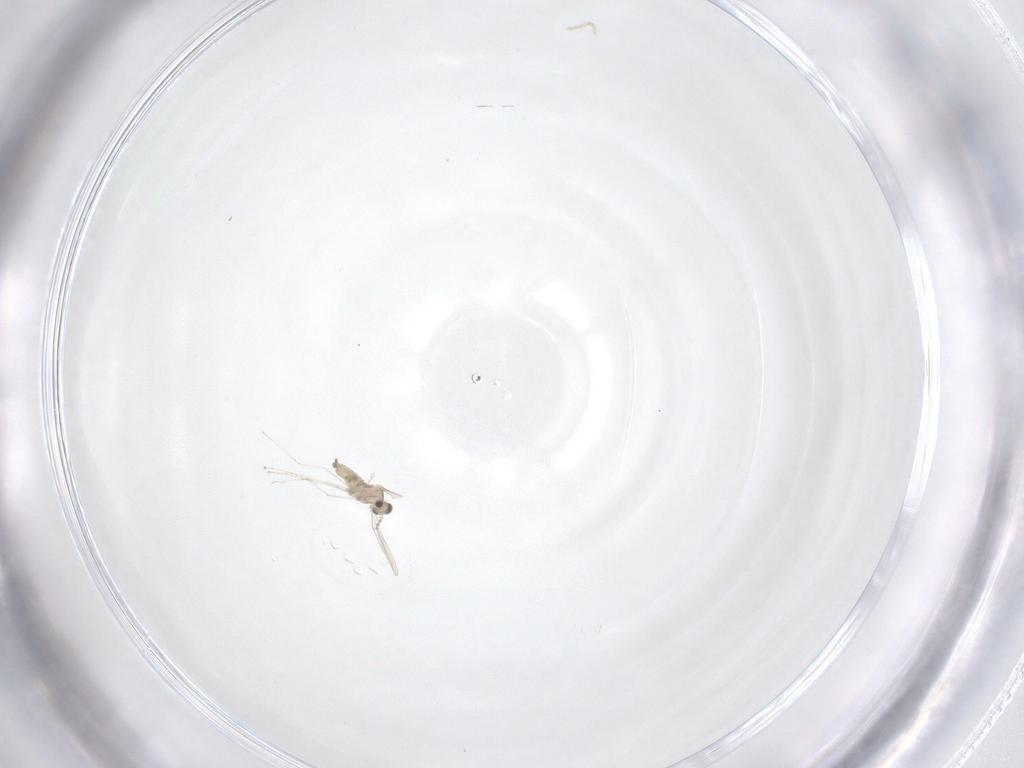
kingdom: Animalia
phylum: Arthropoda
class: Insecta
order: Diptera
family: Cecidomyiidae
